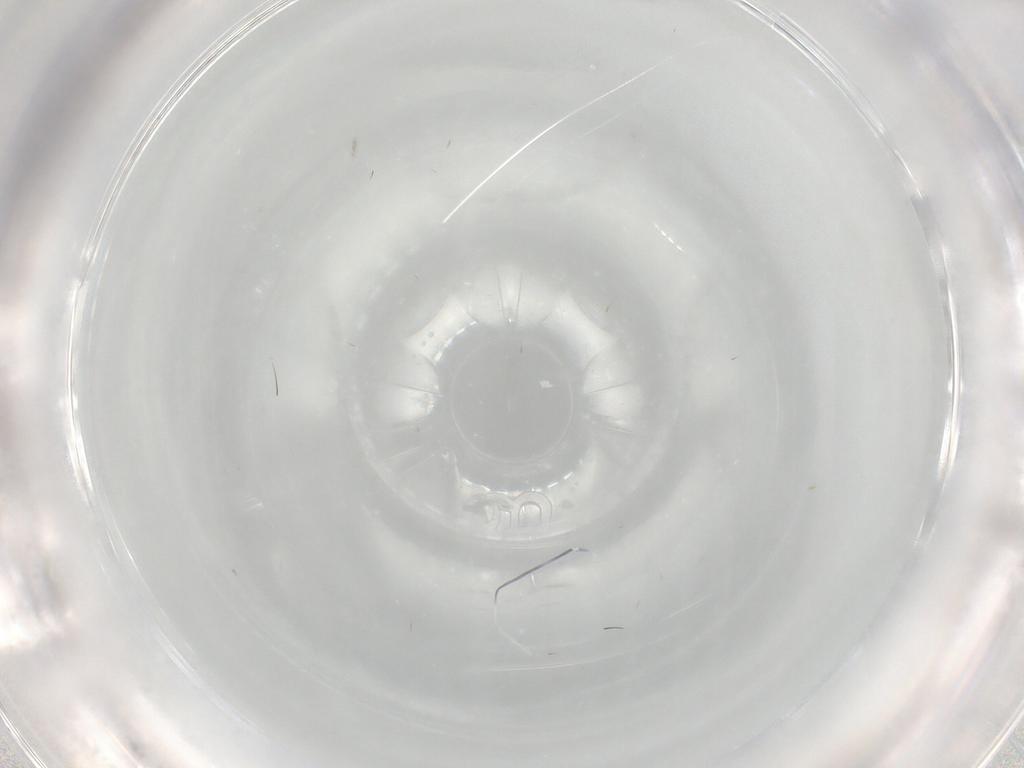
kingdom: Animalia
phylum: Arthropoda
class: Insecta
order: Diptera
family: Cecidomyiidae
